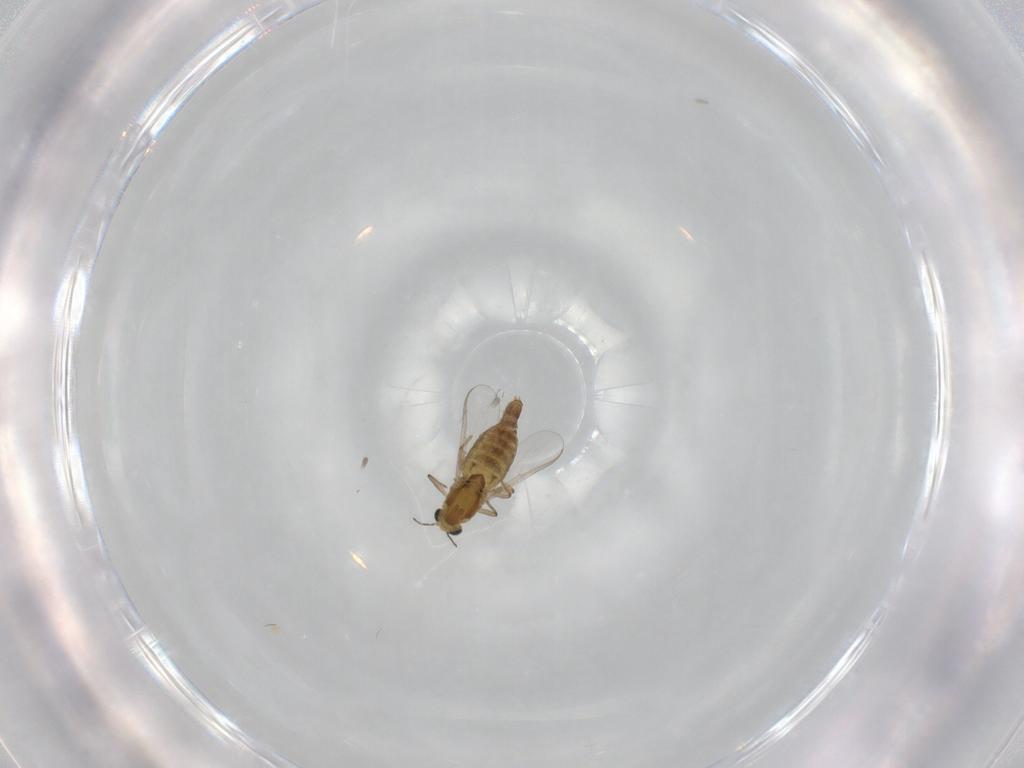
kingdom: Animalia
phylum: Arthropoda
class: Insecta
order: Diptera
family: Chironomidae
